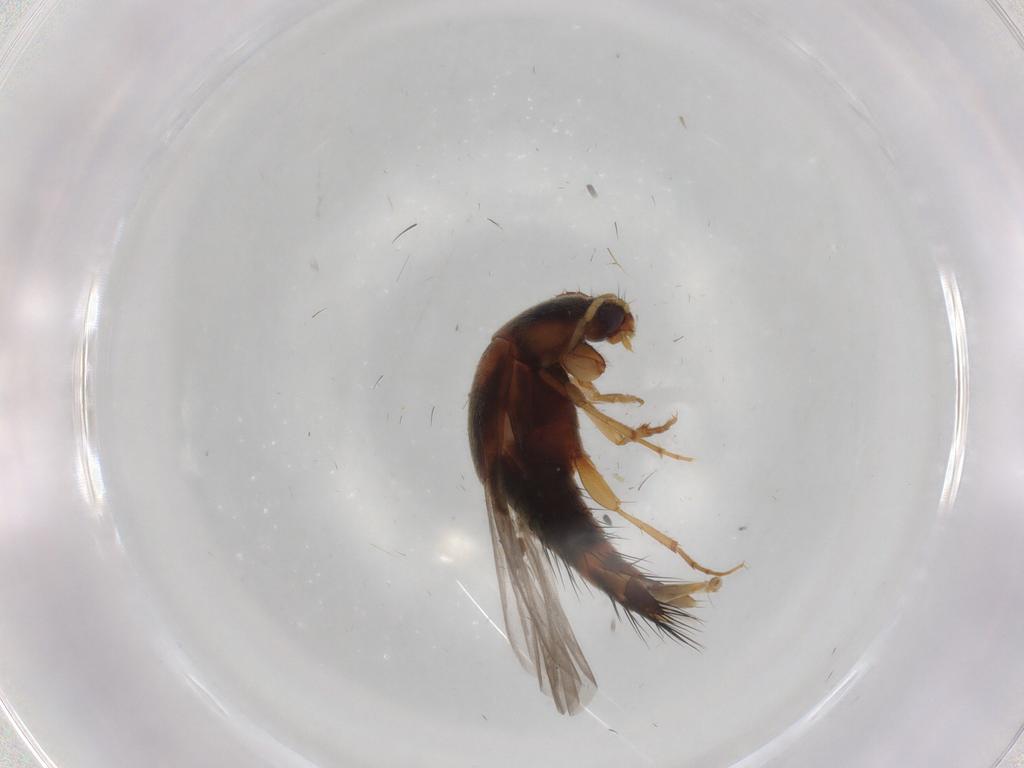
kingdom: Animalia
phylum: Arthropoda
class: Insecta
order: Coleoptera
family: Staphylinidae
